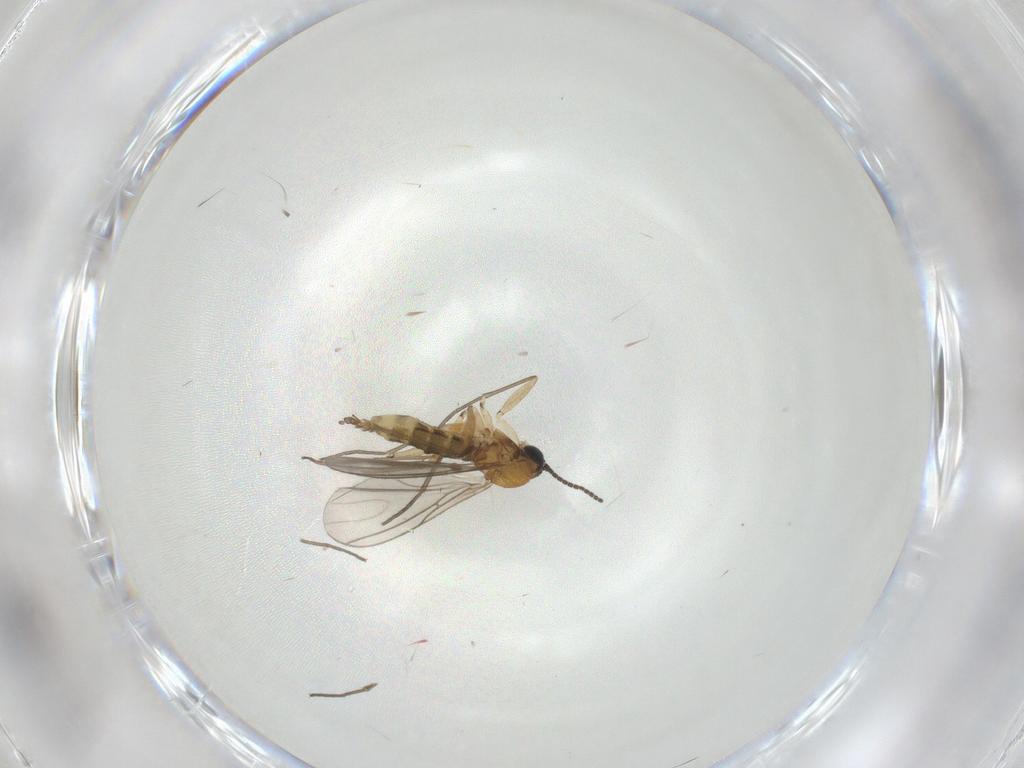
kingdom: Animalia
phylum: Arthropoda
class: Insecta
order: Diptera
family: Sciaridae
